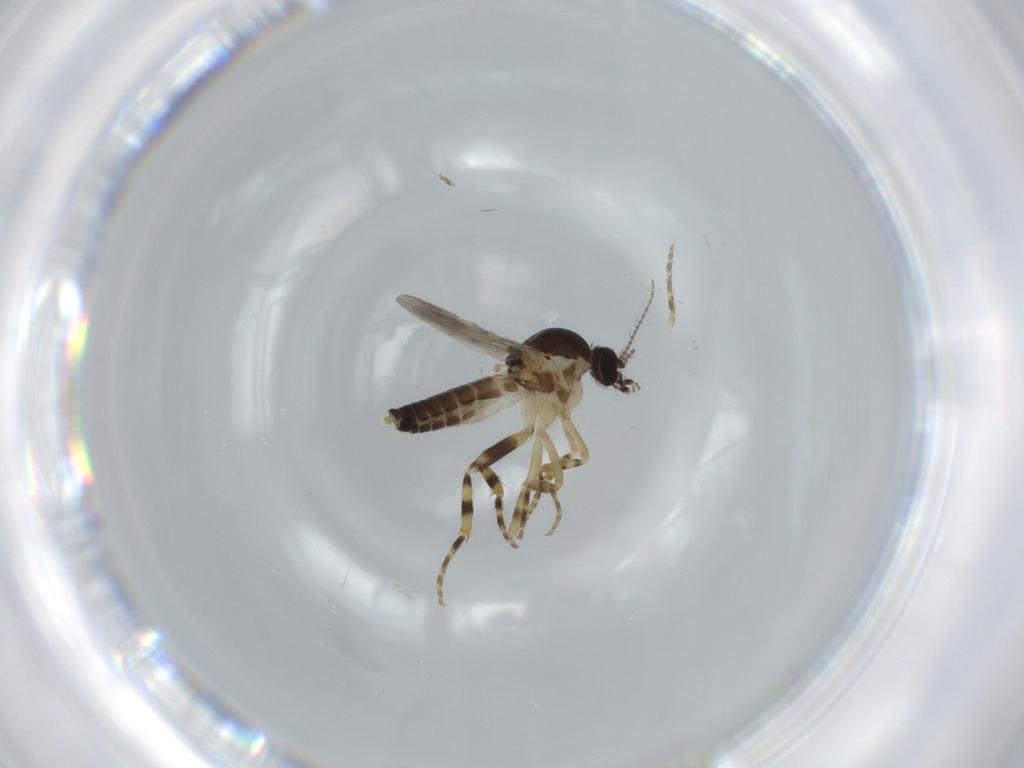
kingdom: Animalia
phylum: Arthropoda
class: Insecta
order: Diptera
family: Ceratopogonidae
